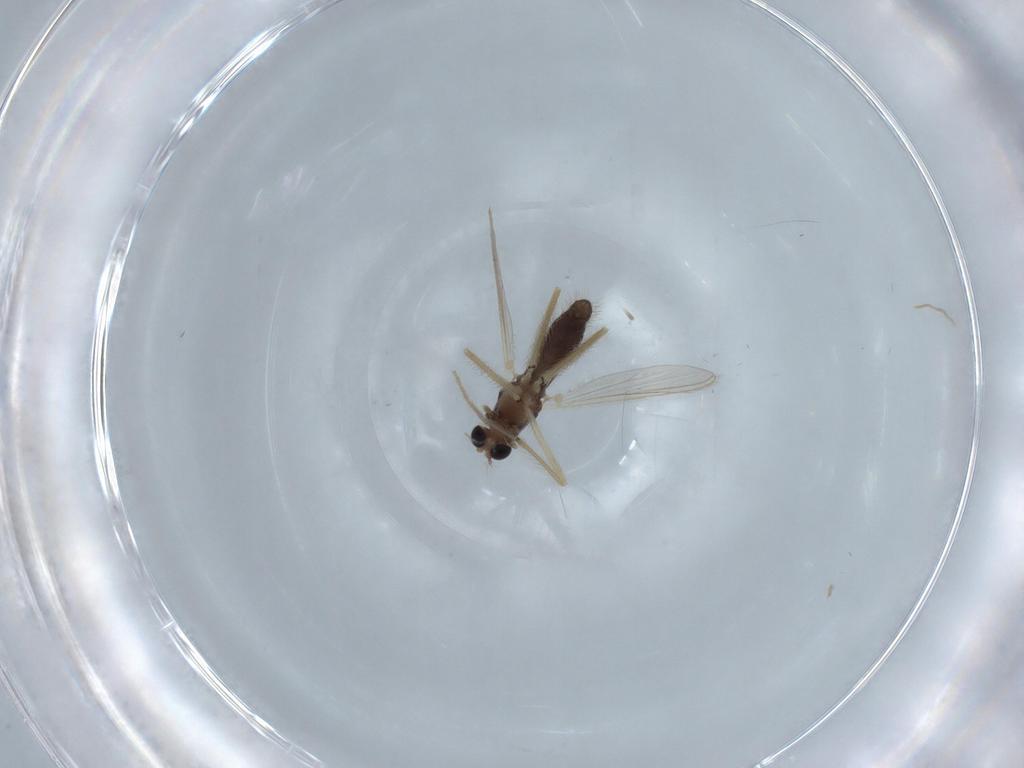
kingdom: Animalia
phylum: Arthropoda
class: Insecta
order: Diptera
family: Chironomidae
